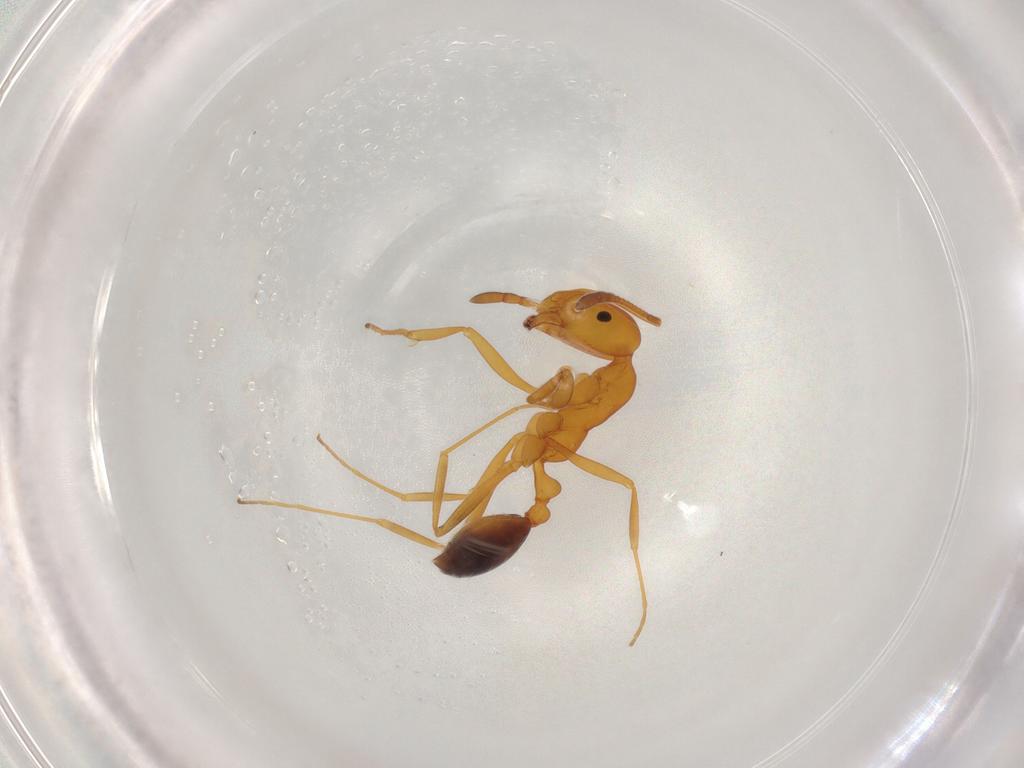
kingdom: Animalia
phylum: Arthropoda
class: Insecta
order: Hymenoptera
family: Formicidae
